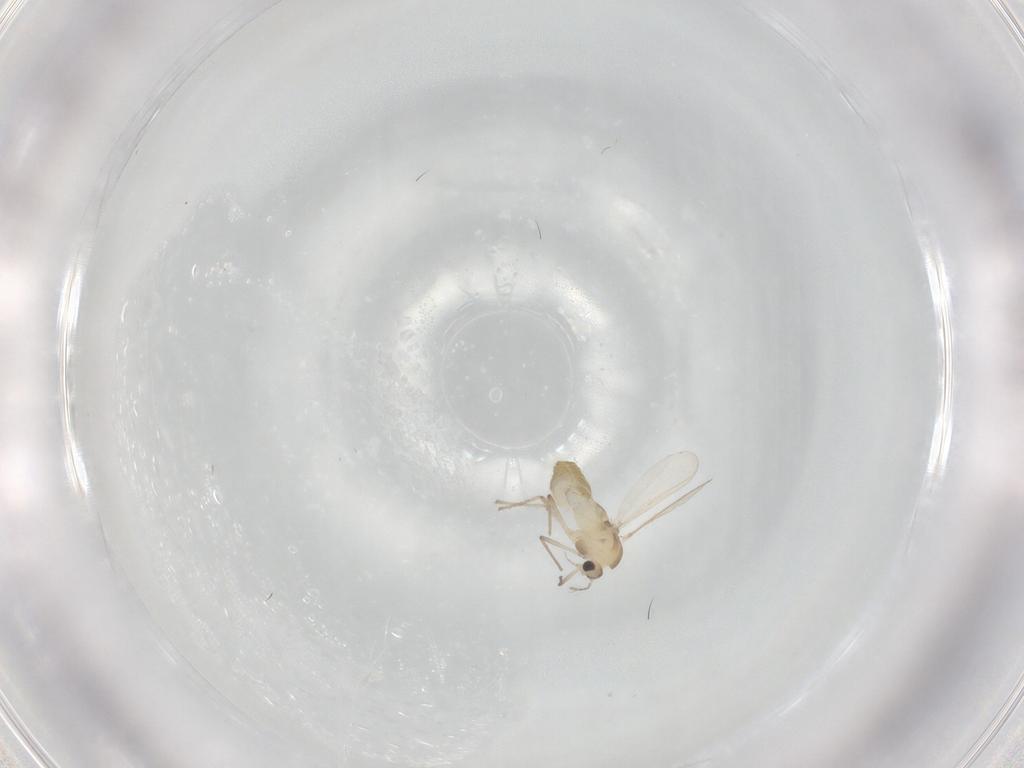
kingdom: Animalia
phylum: Arthropoda
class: Insecta
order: Diptera
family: Chironomidae
